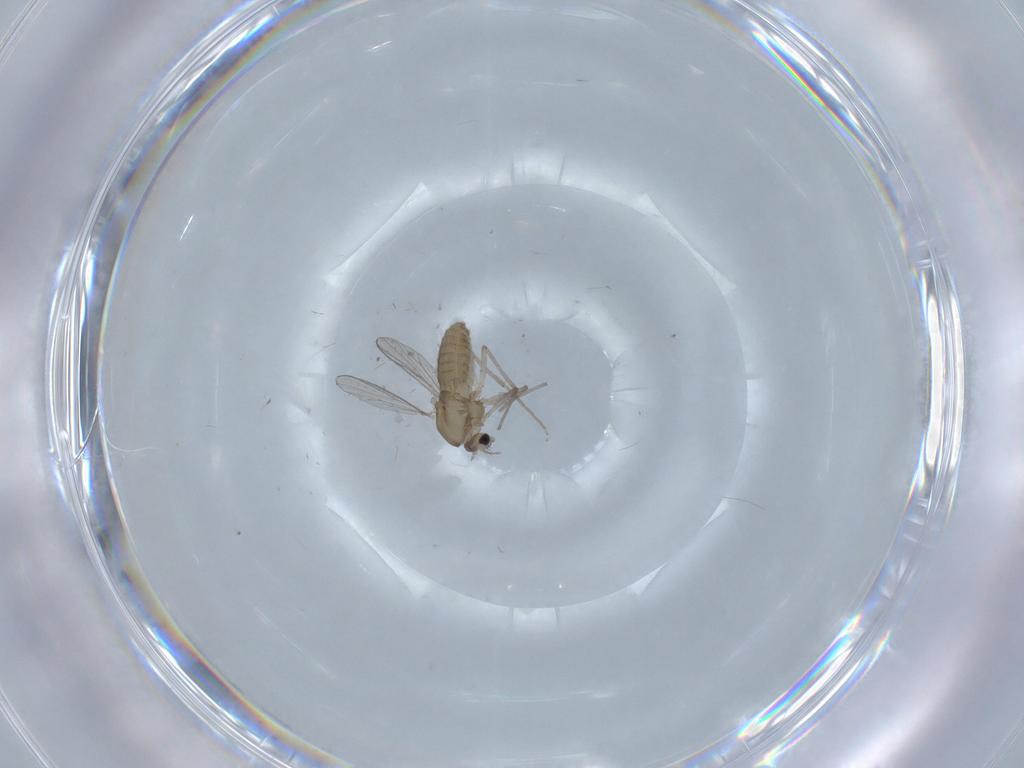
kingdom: Animalia
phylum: Arthropoda
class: Insecta
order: Diptera
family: Chironomidae
